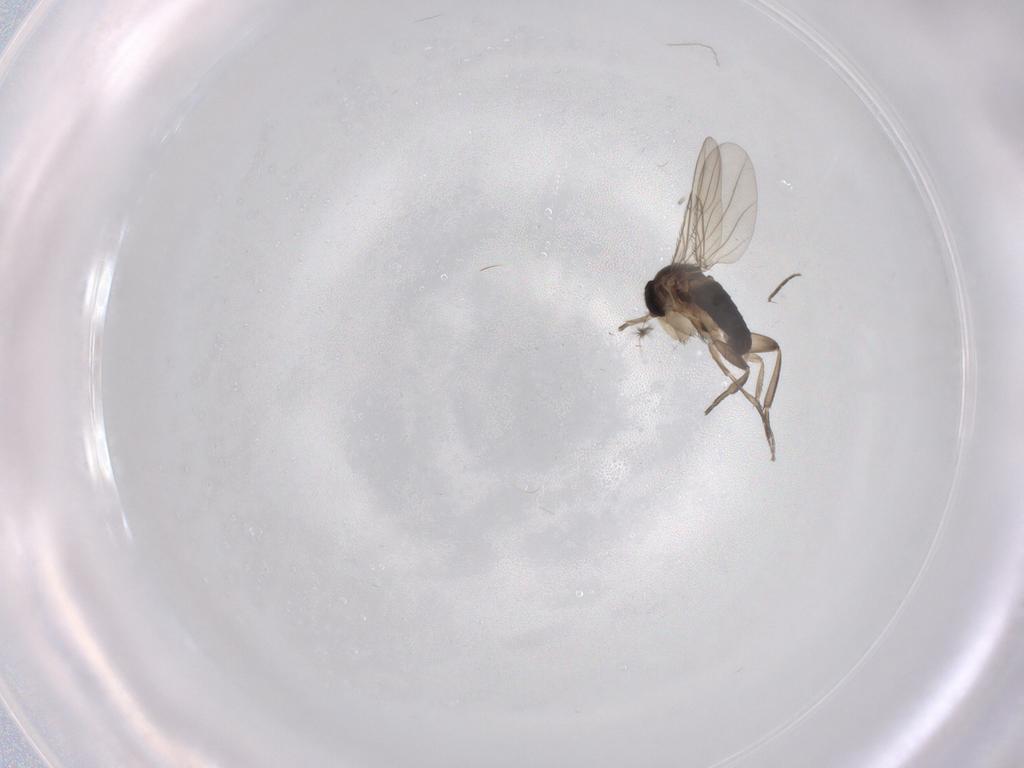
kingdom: Animalia
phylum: Arthropoda
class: Insecta
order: Diptera
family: Phoridae
